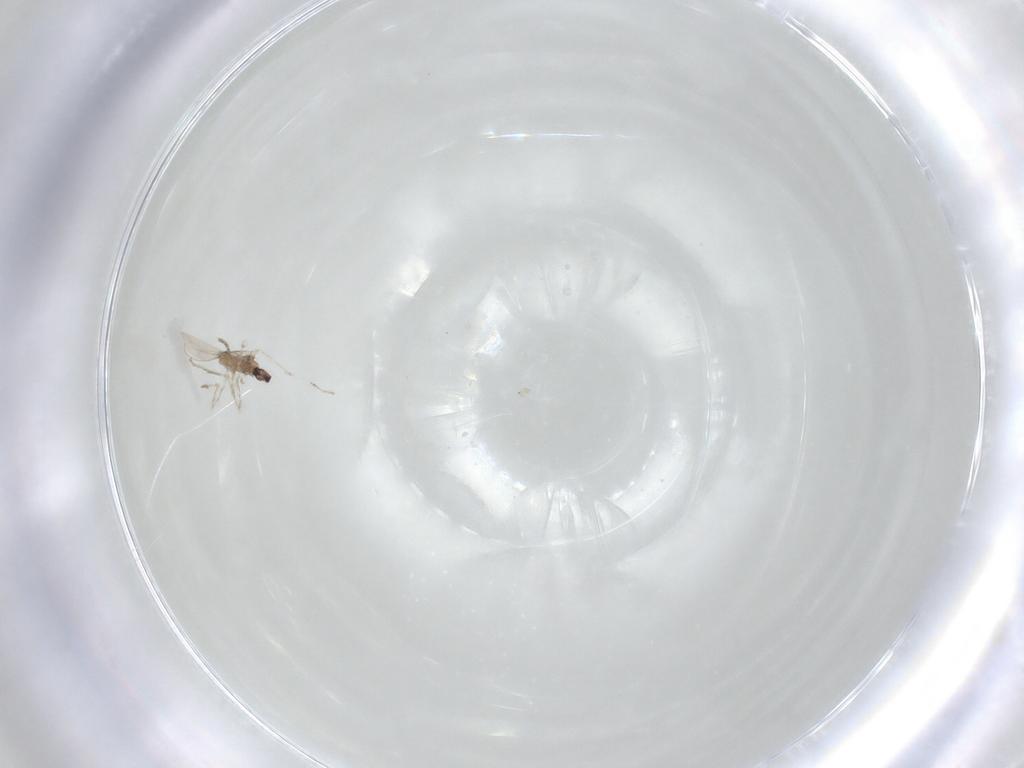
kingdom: Animalia
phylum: Arthropoda
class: Insecta
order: Diptera
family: Cecidomyiidae
